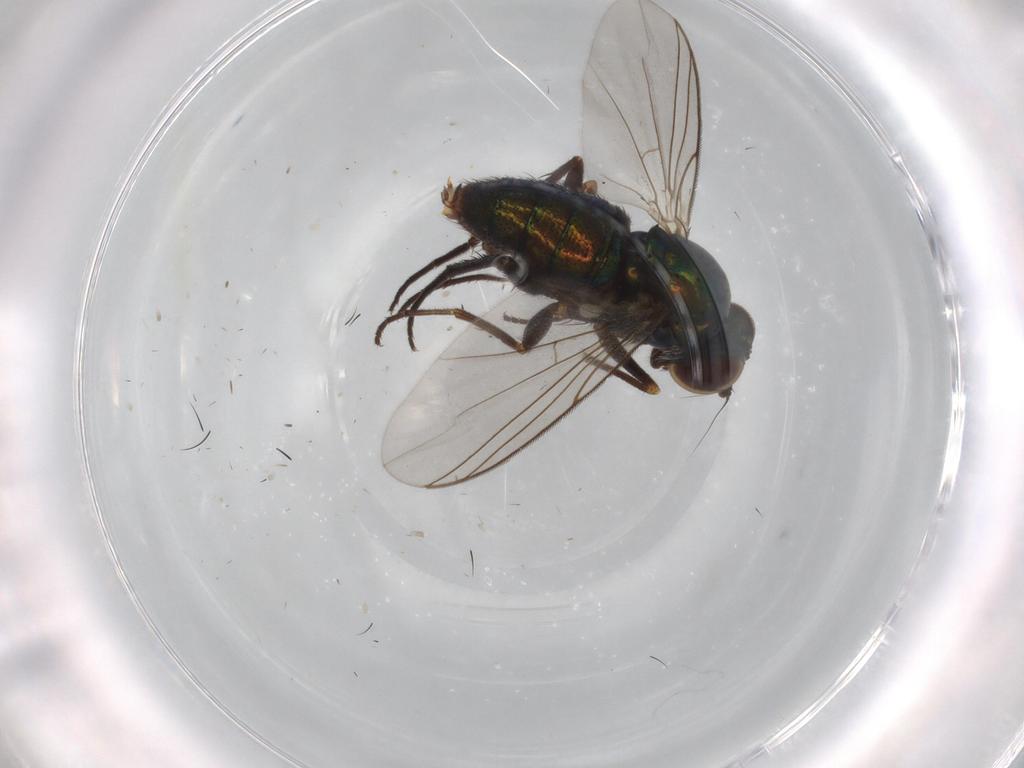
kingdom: Animalia
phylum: Arthropoda
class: Insecta
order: Diptera
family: Dolichopodidae
